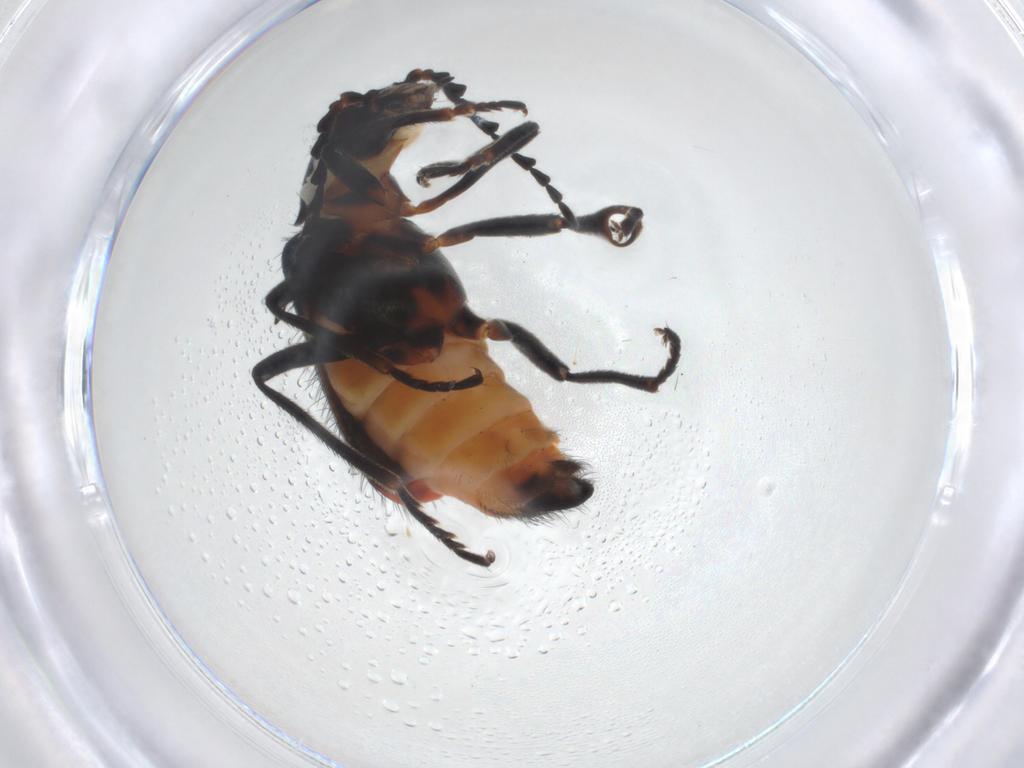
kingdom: Animalia
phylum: Arthropoda
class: Insecta
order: Coleoptera
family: Melyridae
